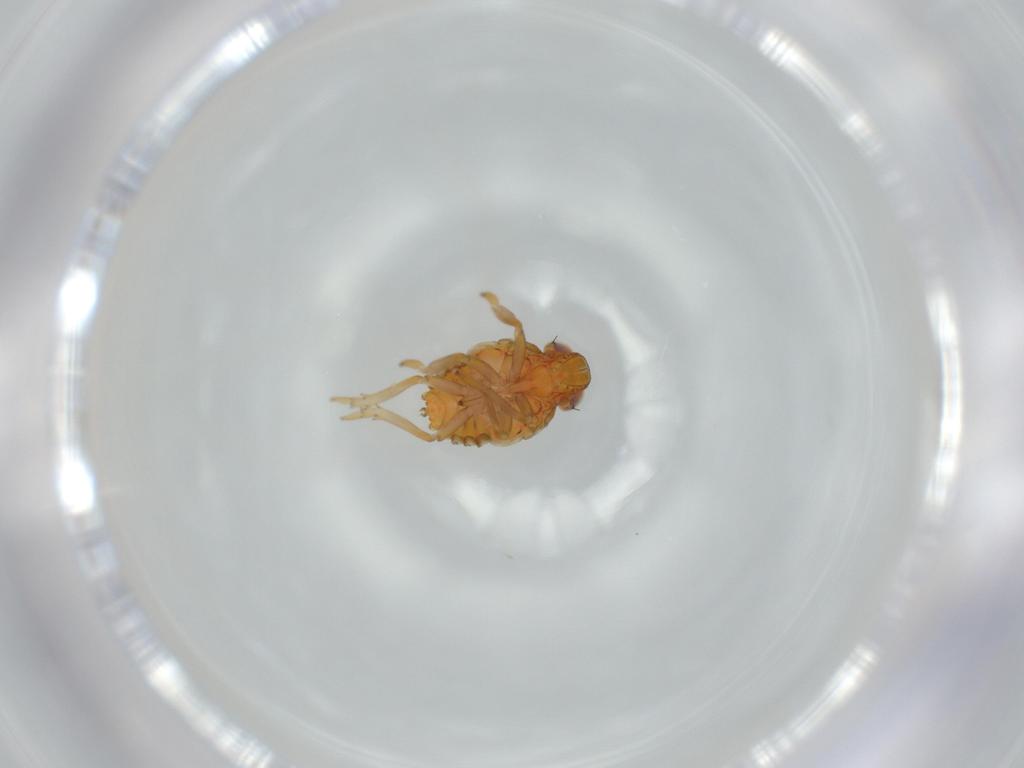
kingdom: Animalia
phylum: Arthropoda
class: Insecta
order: Hemiptera
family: Issidae
